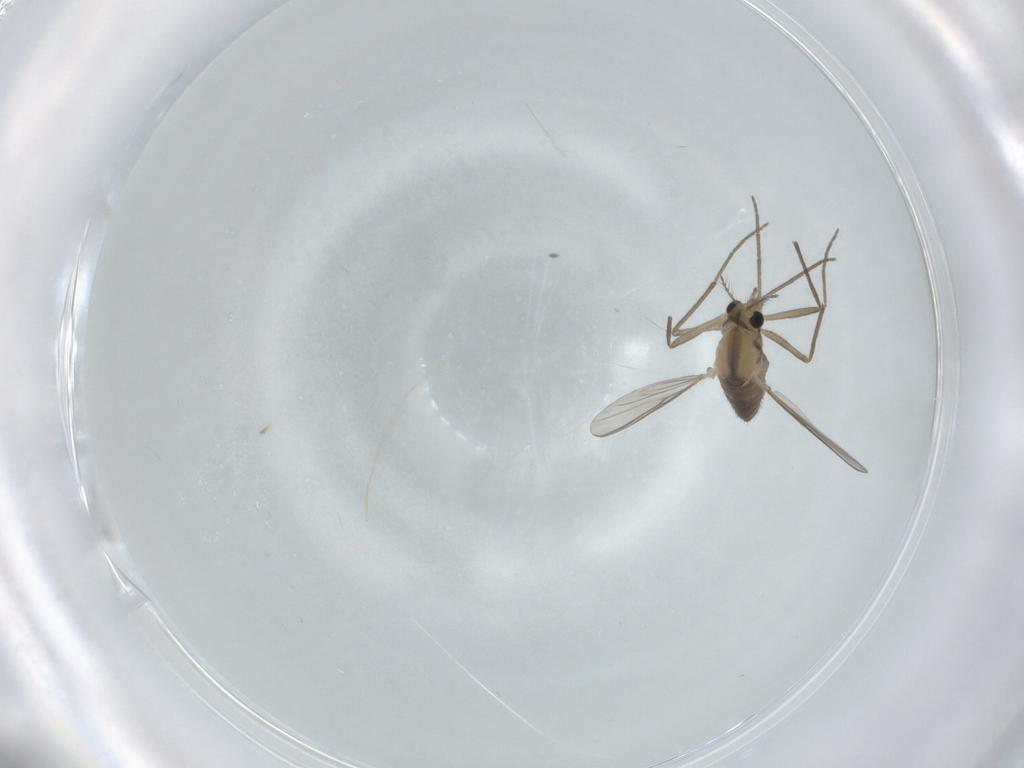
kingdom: Animalia
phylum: Arthropoda
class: Insecta
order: Diptera
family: Chironomidae
